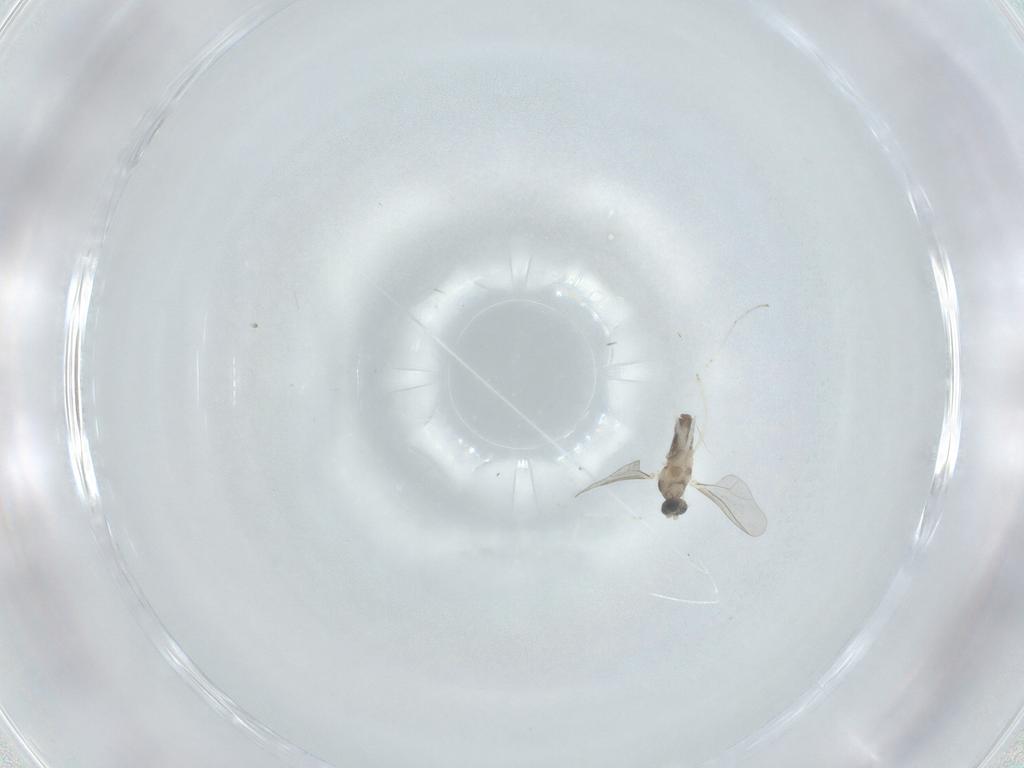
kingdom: Animalia
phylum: Arthropoda
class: Insecta
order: Diptera
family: Cecidomyiidae
